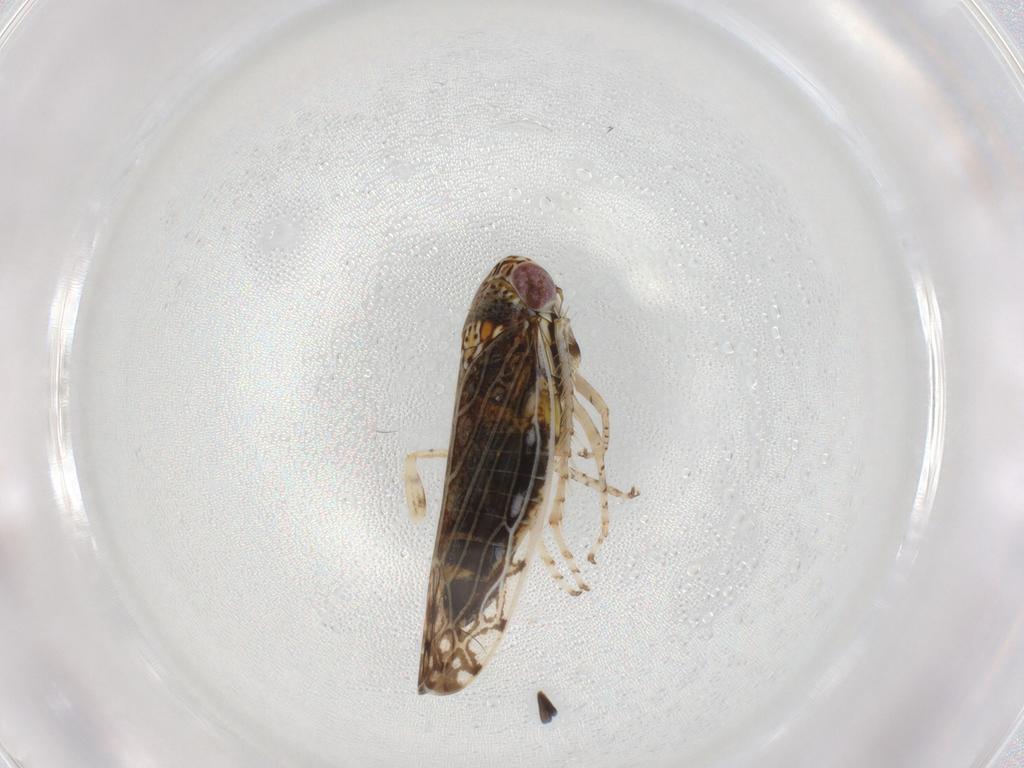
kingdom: Animalia
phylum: Arthropoda
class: Insecta
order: Hemiptera
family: Cicadellidae
